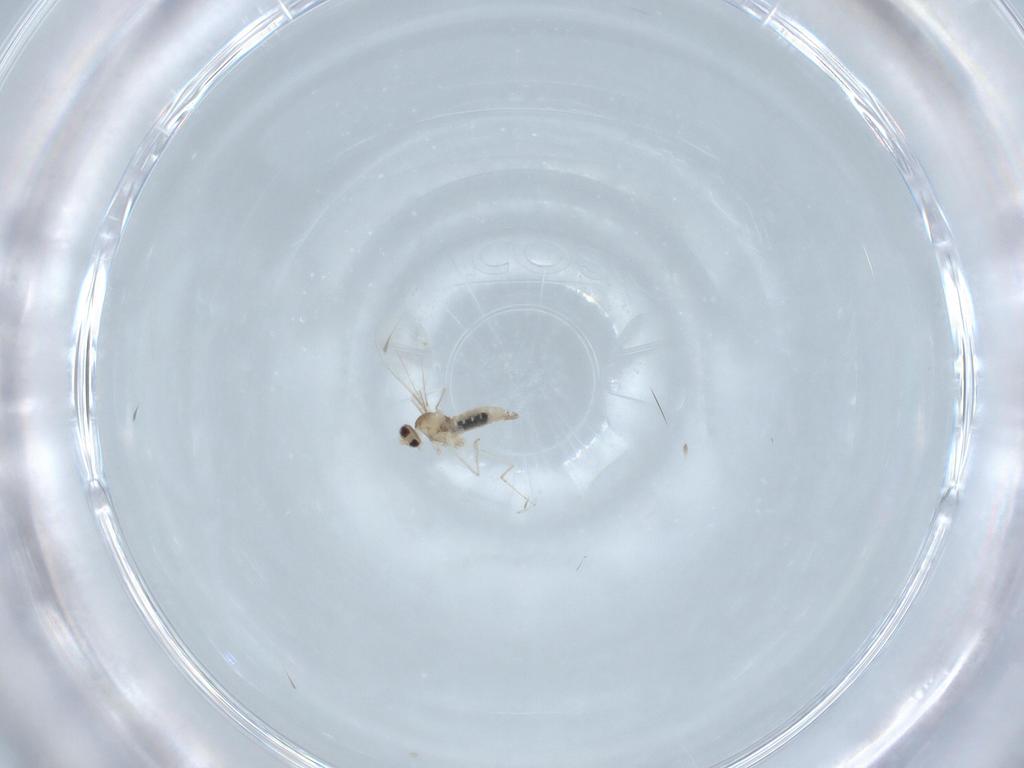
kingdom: Animalia
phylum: Arthropoda
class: Insecta
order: Diptera
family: Cecidomyiidae
